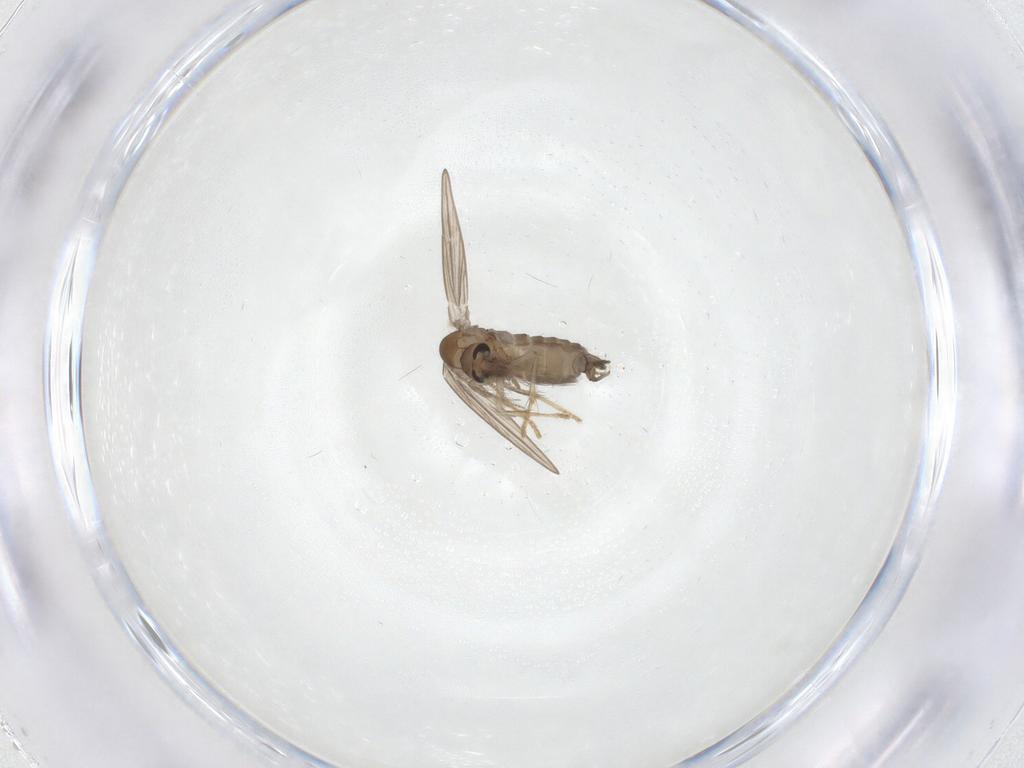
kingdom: Animalia
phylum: Arthropoda
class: Insecta
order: Diptera
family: Psychodidae
